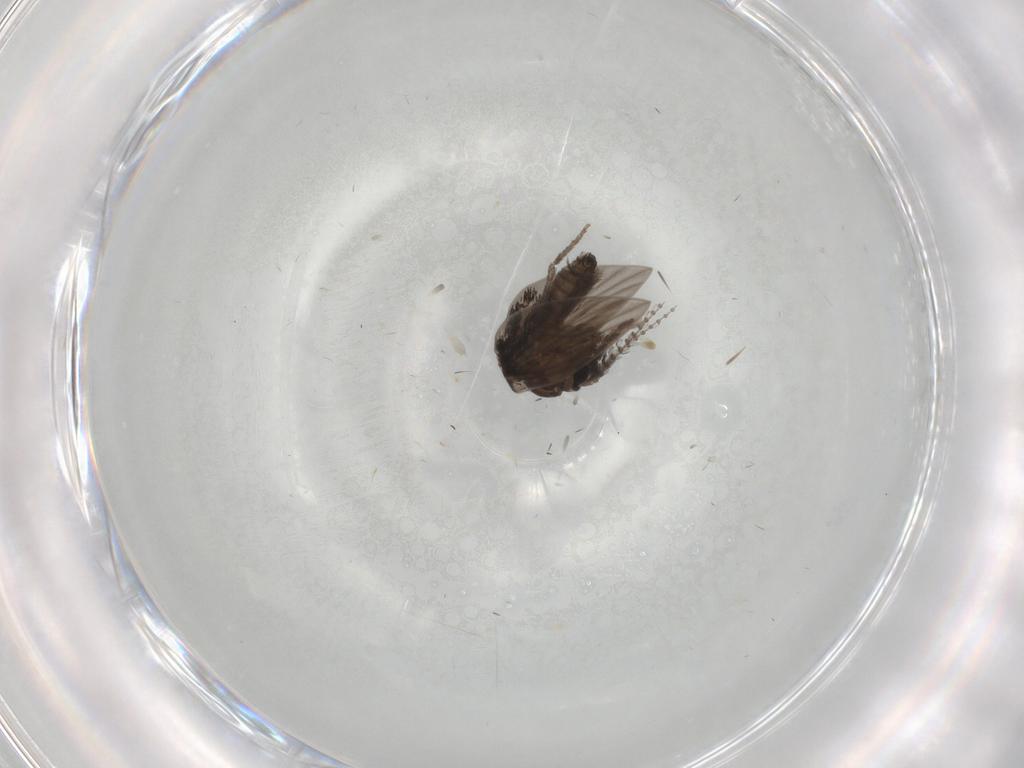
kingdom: Animalia
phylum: Arthropoda
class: Insecta
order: Diptera
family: Psychodidae
